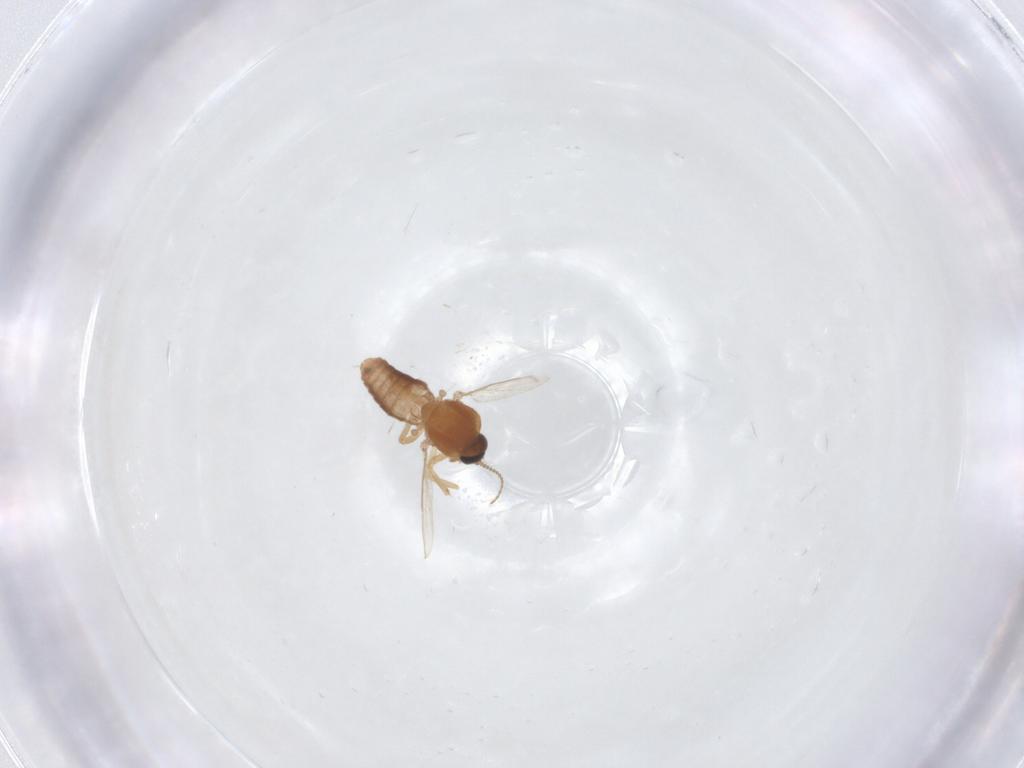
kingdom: Animalia
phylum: Arthropoda
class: Insecta
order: Diptera
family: Ceratopogonidae
